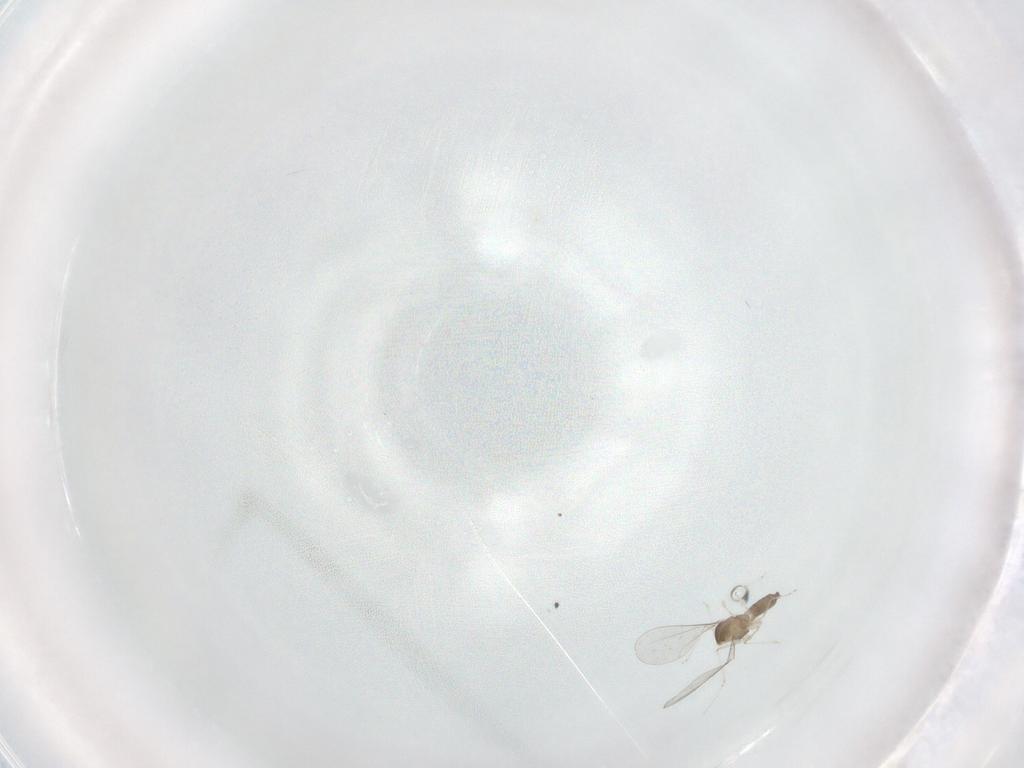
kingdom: Animalia
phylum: Arthropoda
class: Insecta
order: Diptera
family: Cecidomyiidae
